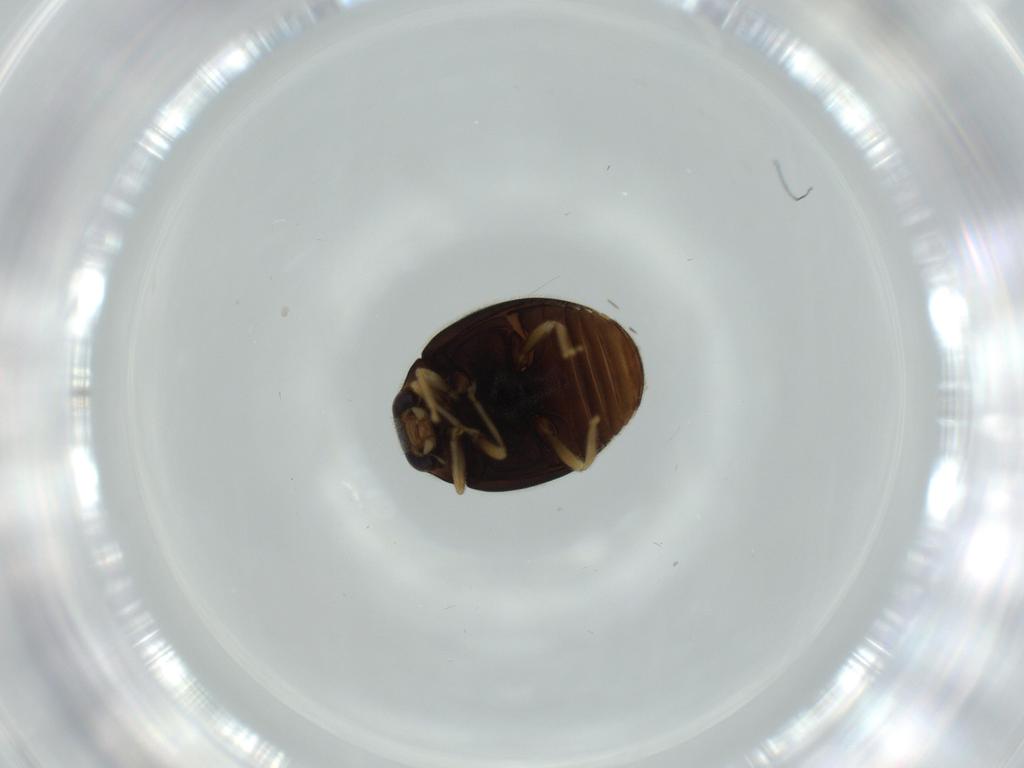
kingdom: Animalia
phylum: Arthropoda
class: Insecta
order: Coleoptera
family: Coccinellidae
